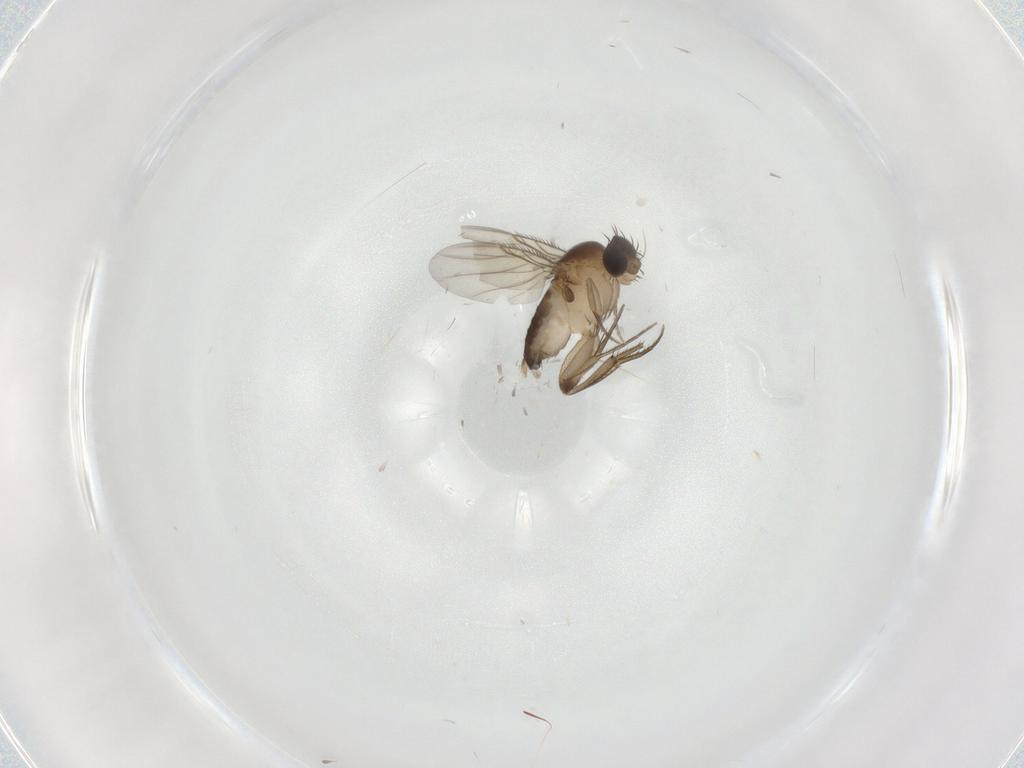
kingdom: Animalia
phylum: Arthropoda
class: Insecta
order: Diptera
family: Phoridae
